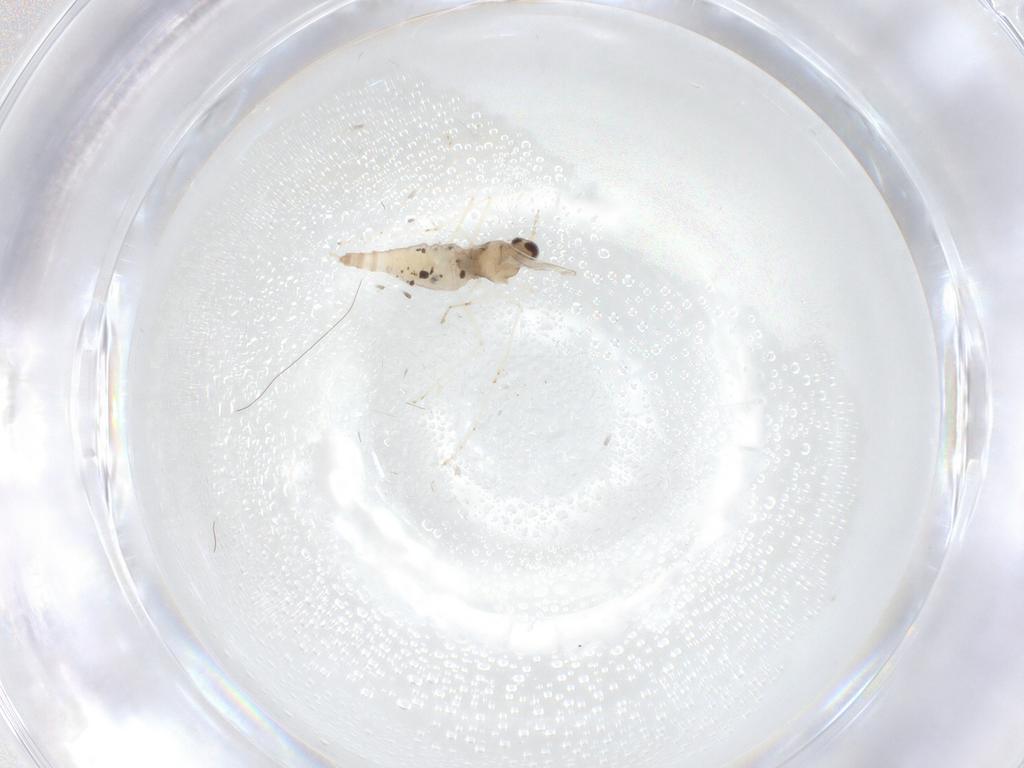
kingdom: Animalia
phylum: Arthropoda
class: Insecta
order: Diptera
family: Cecidomyiidae
